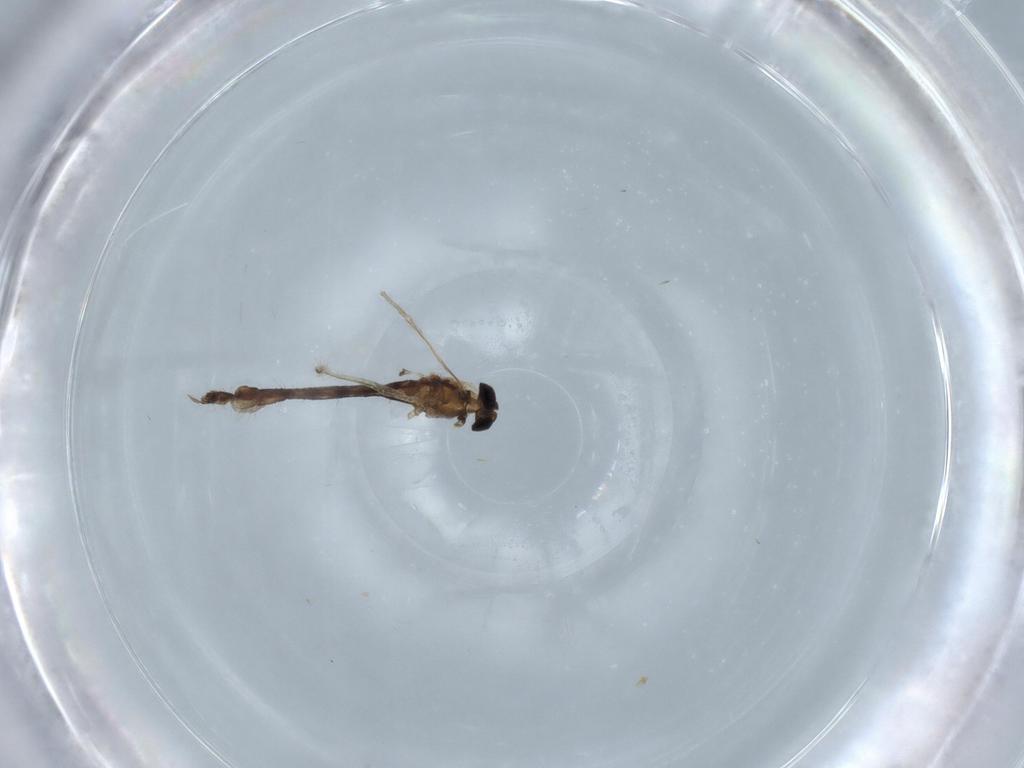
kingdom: Animalia
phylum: Arthropoda
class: Insecta
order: Diptera
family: Chironomidae
